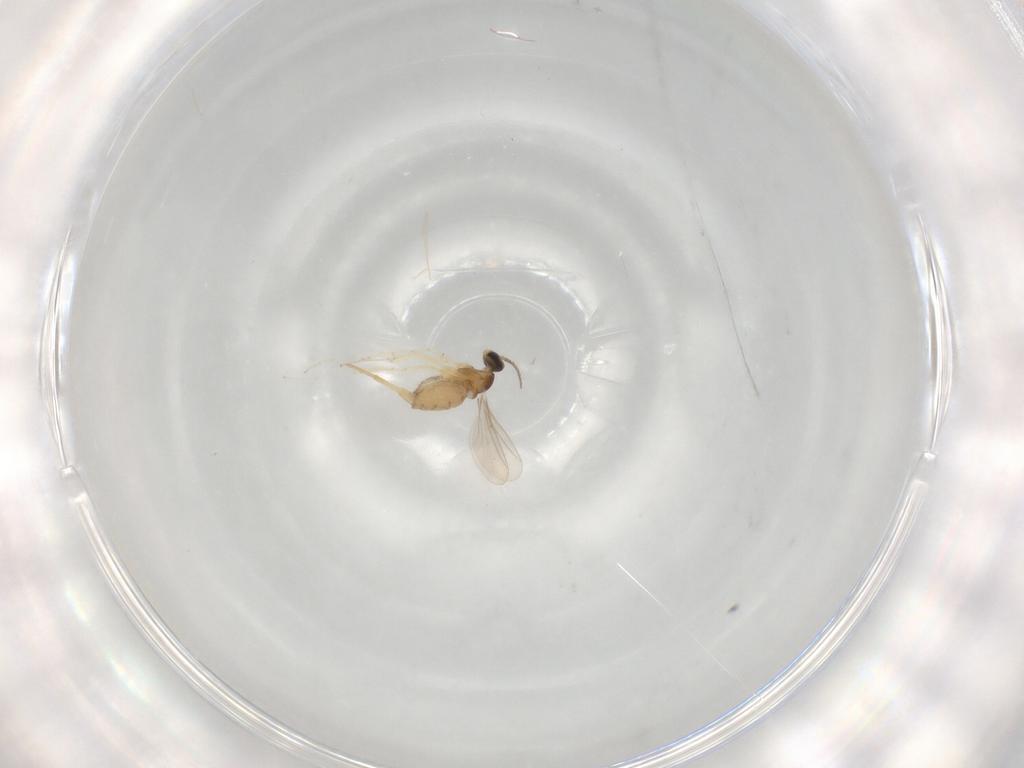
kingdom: Animalia
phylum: Arthropoda
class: Insecta
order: Diptera
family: Cecidomyiidae
